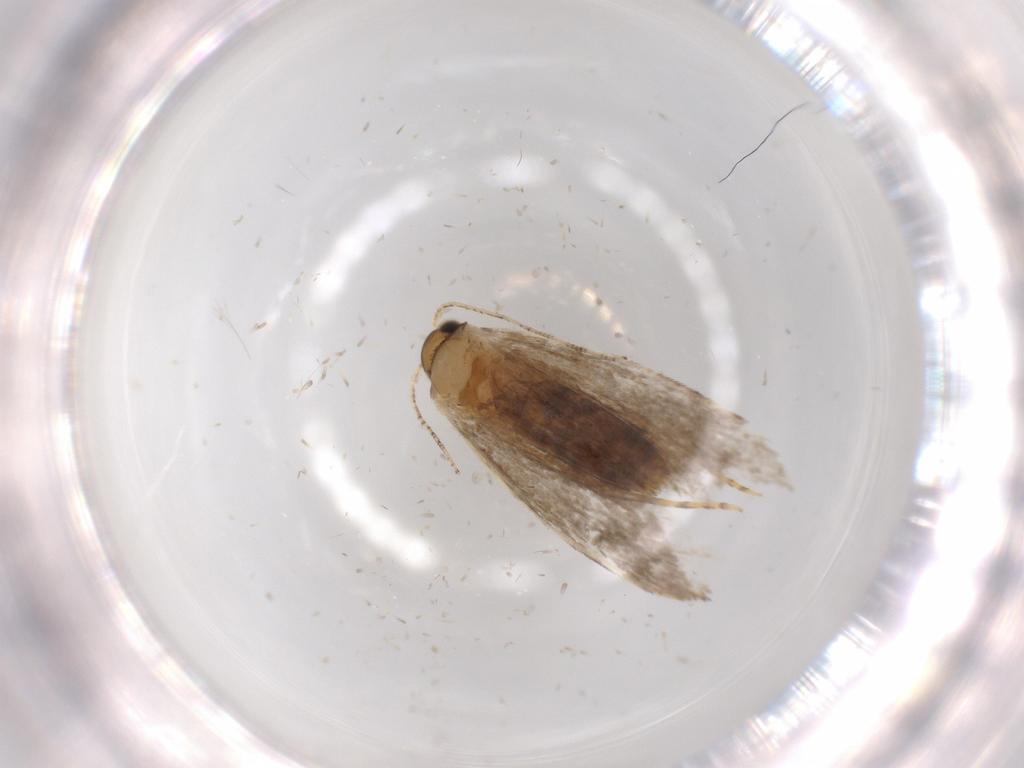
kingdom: Animalia
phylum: Arthropoda
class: Insecta
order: Lepidoptera
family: Tineidae
